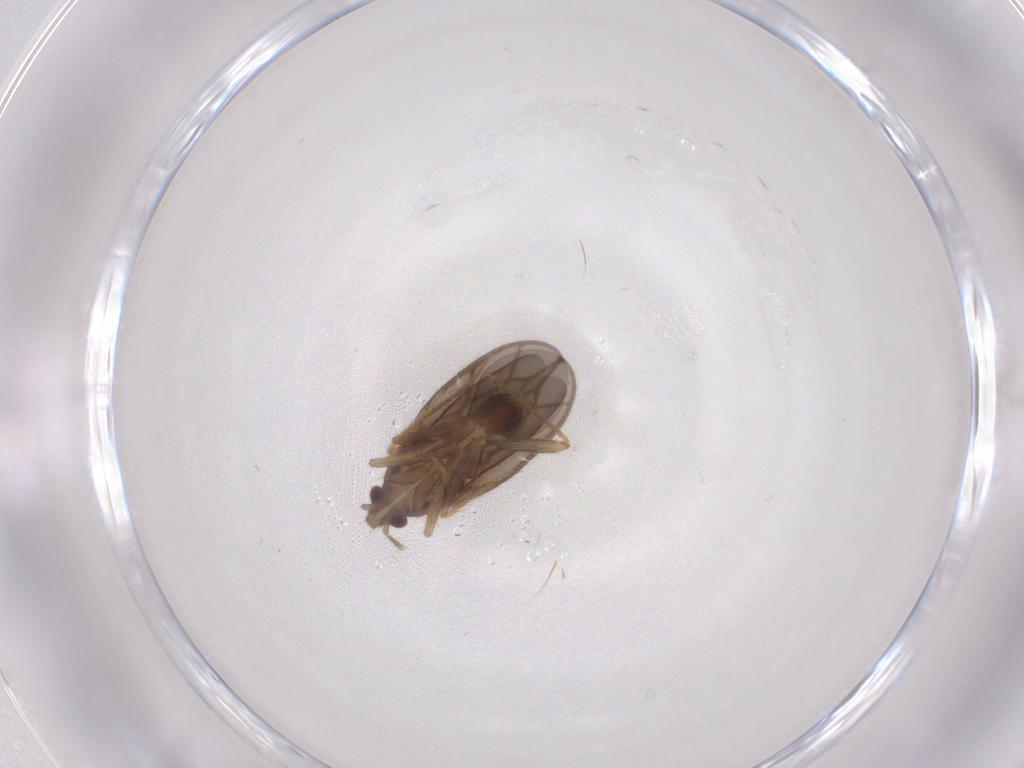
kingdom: Animalia
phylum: Arthropoda
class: Insecta
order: Hemiptera
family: Ceratocombidae
